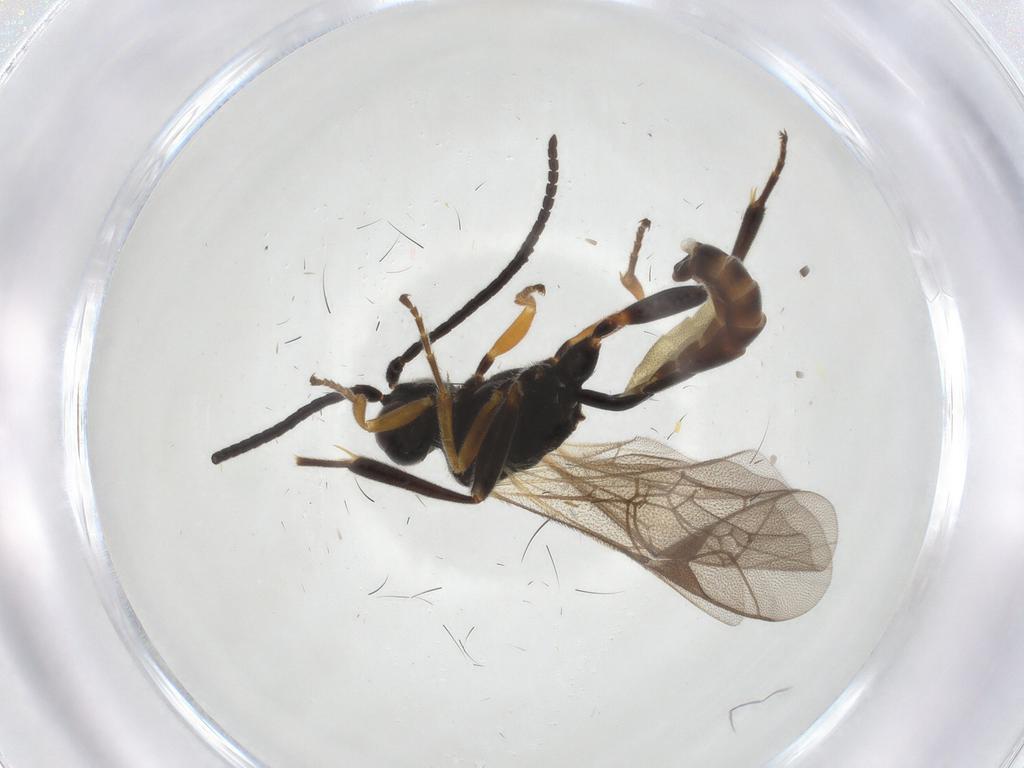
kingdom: Animalia
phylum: Arthropoda
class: Insecta
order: Hymenoptera
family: Ichneumonidae
